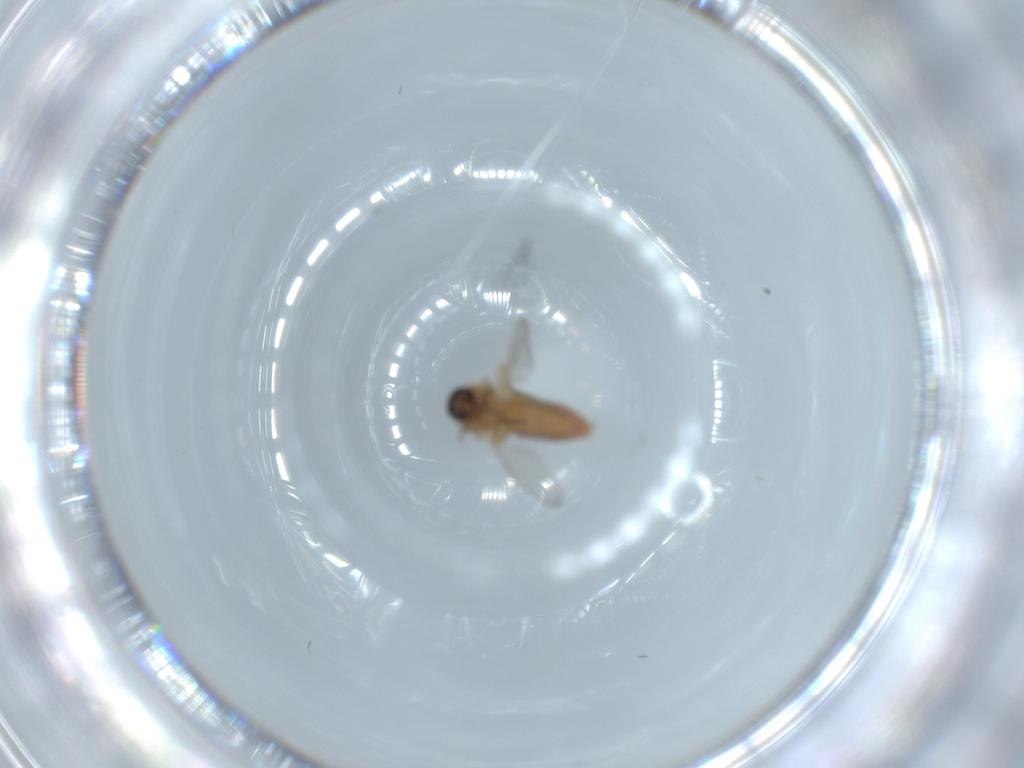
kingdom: Animalia
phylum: Arthropoda
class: Insecta
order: Diptera
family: Ceratopogonidae
